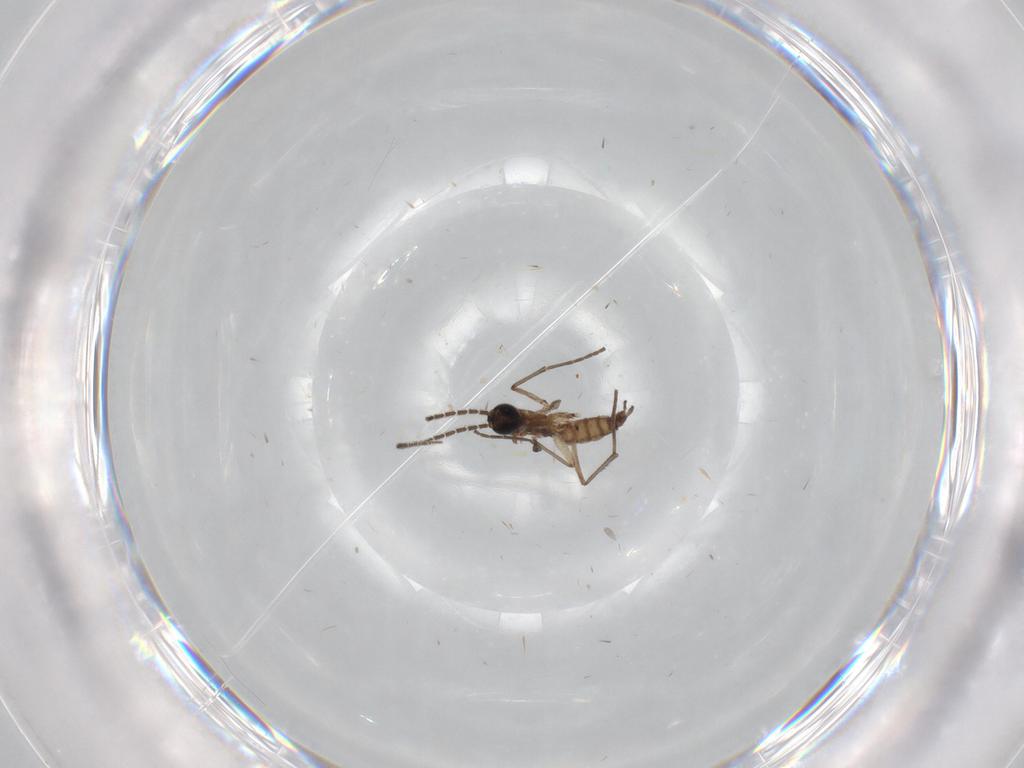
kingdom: Animalia
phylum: Arthropoda
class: Insecta
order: Diptera
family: Sciaridae
